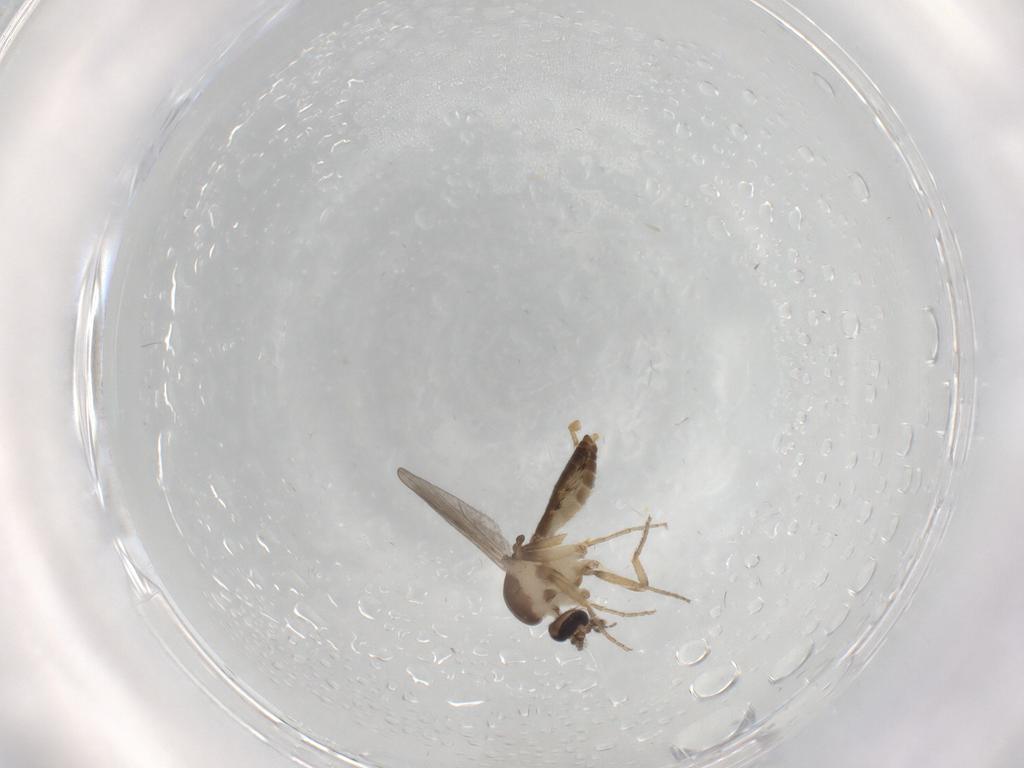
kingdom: Animalia
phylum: Arthropoda
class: Insecta
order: Diptera
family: Ceratopogonidae
